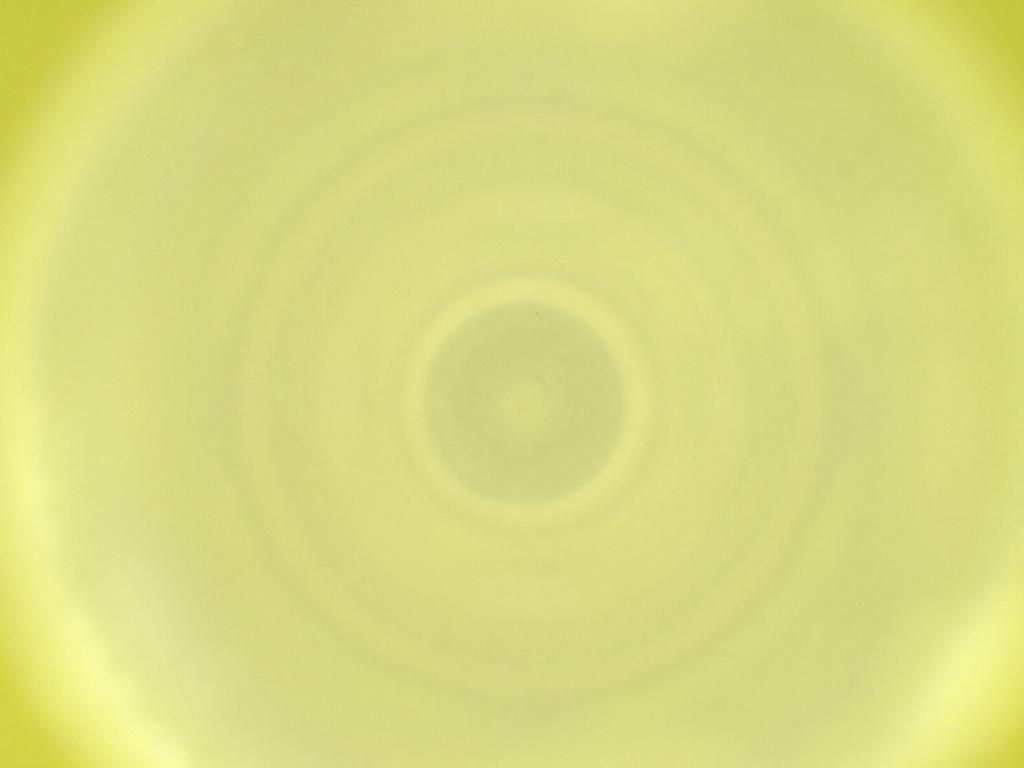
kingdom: Animalia
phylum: Arthropoda
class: Insecta
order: Diptera
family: Cecidomyiidae
